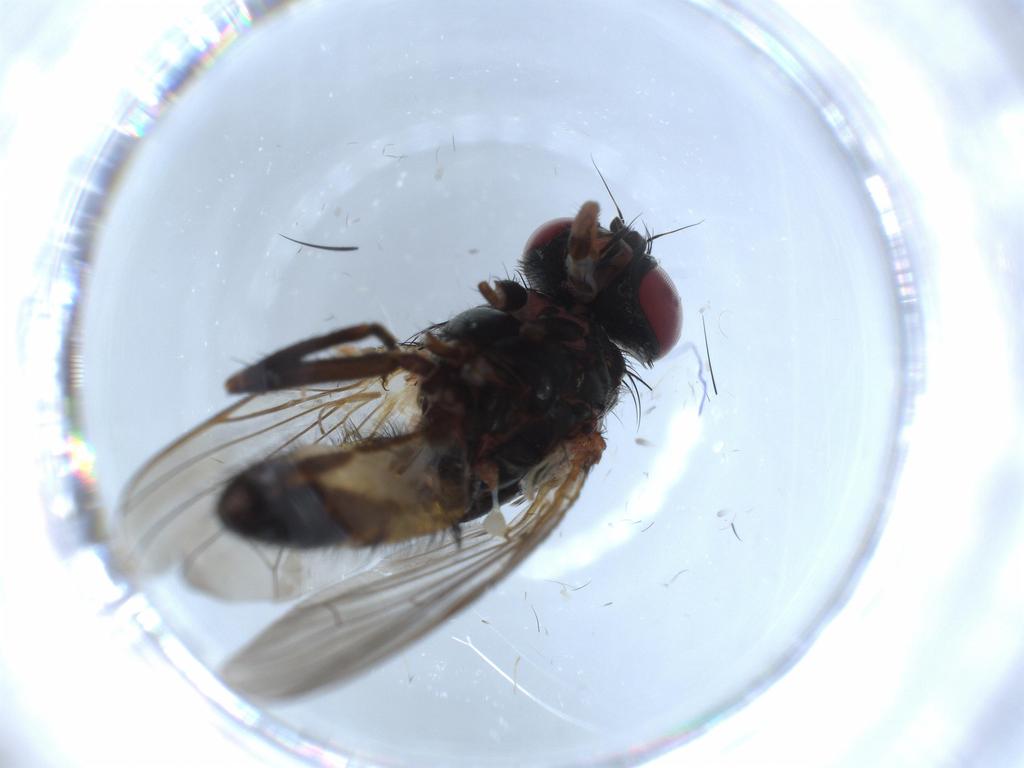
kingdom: Animalia
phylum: Arthropoda
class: Insecta
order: Diptera
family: Fannia
